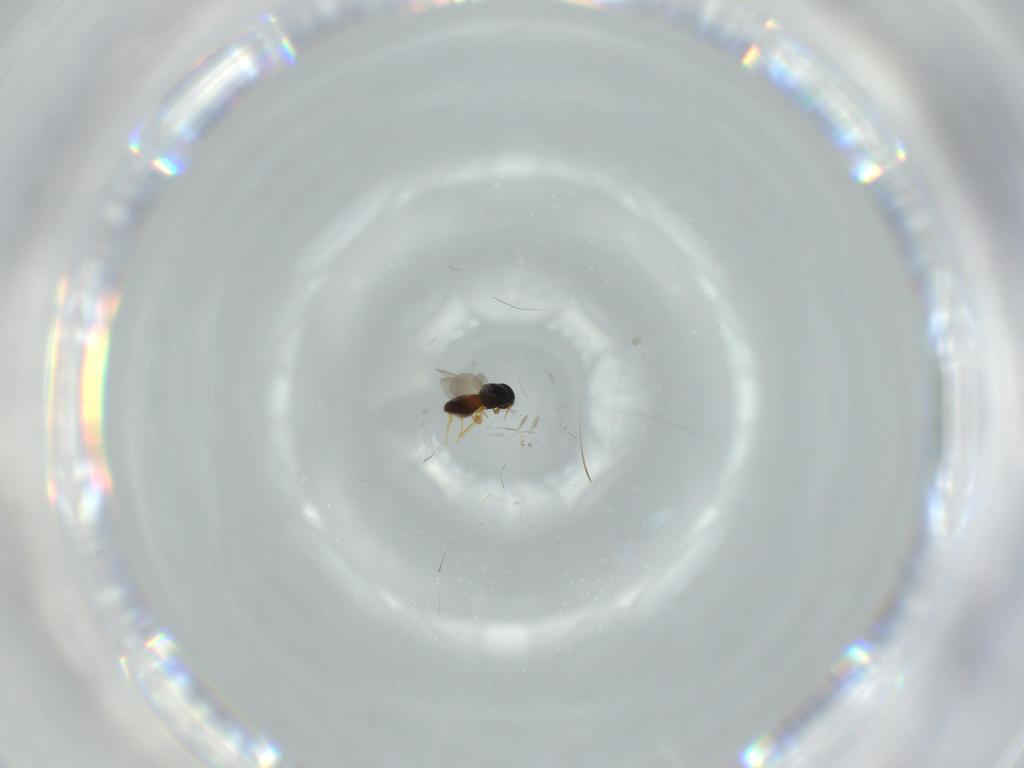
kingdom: Animalia
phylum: Arthropoda
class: Insecta
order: Hymenoptera
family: Platygastridae
